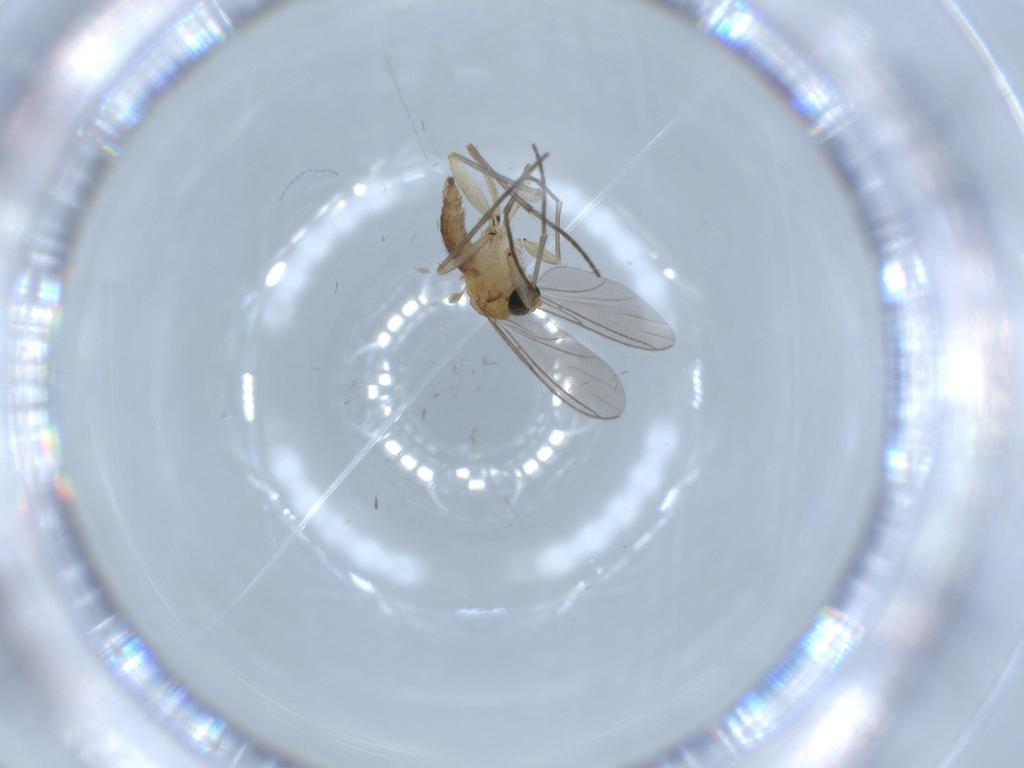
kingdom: Animalia
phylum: Arthropoda
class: Insecta
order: Diptera
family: Sciaridae
